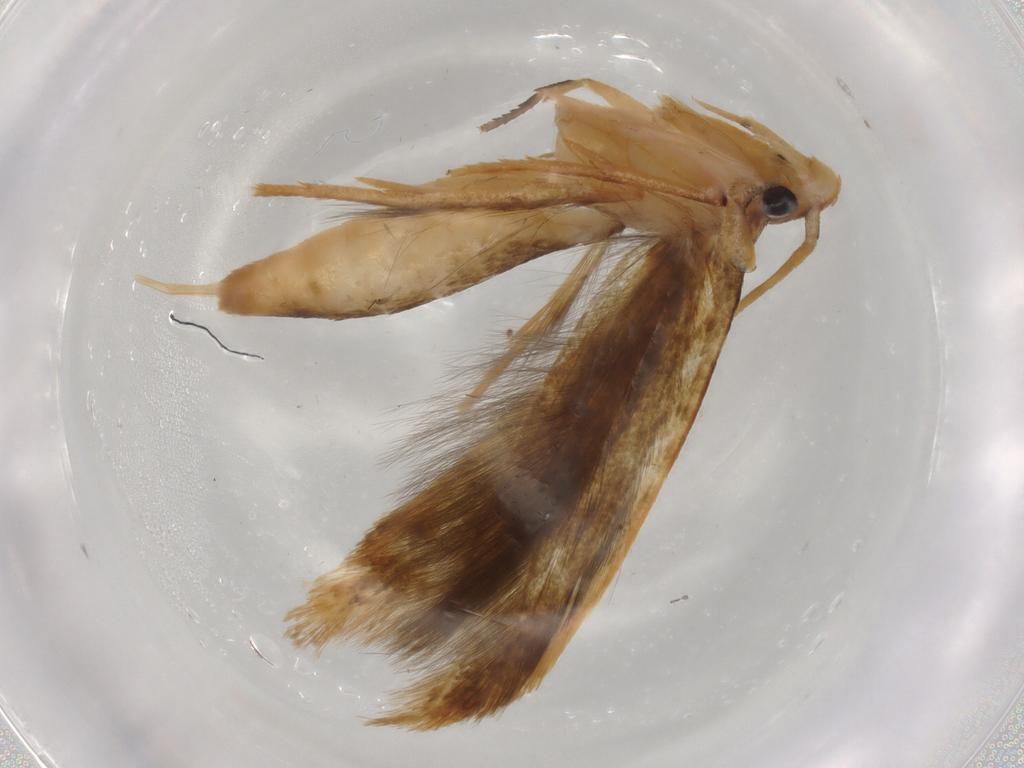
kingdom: Animalia
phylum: Arthropoda
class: Insecta
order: Lepidoptera
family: Tineidae
